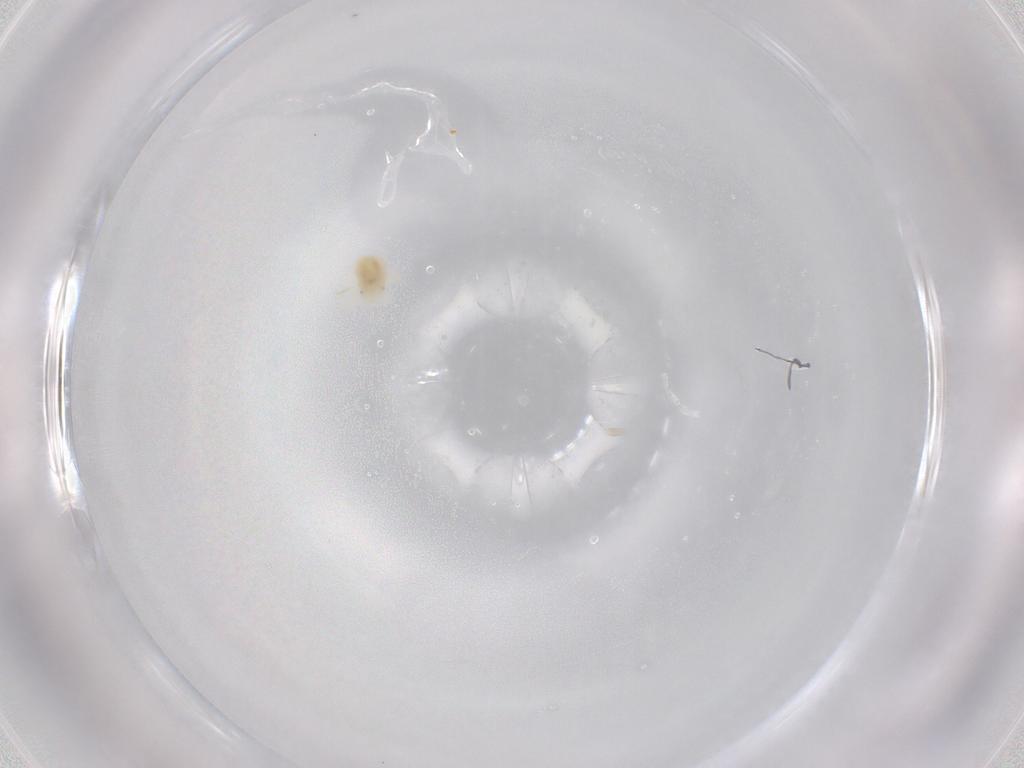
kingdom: Animalia
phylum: Arthropoda
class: Arachnida
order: Trombidiformes
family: Anystidae
